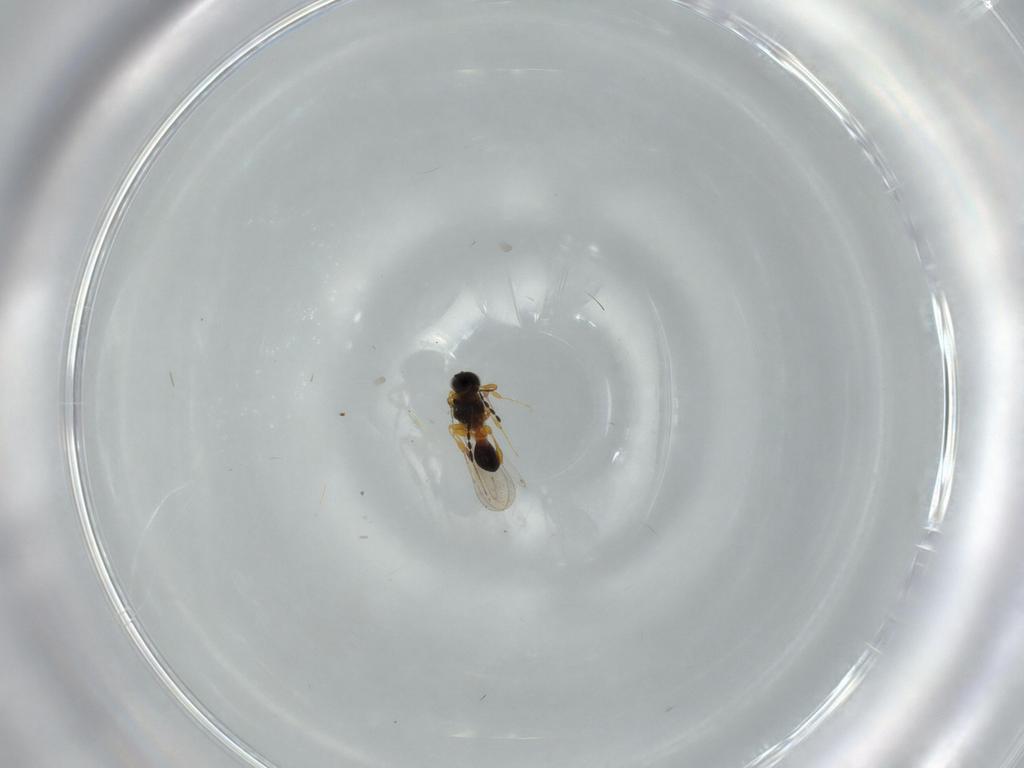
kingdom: Animalia
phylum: Arthropoda
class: Insecta
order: Hymenoptera
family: Platygastridae
